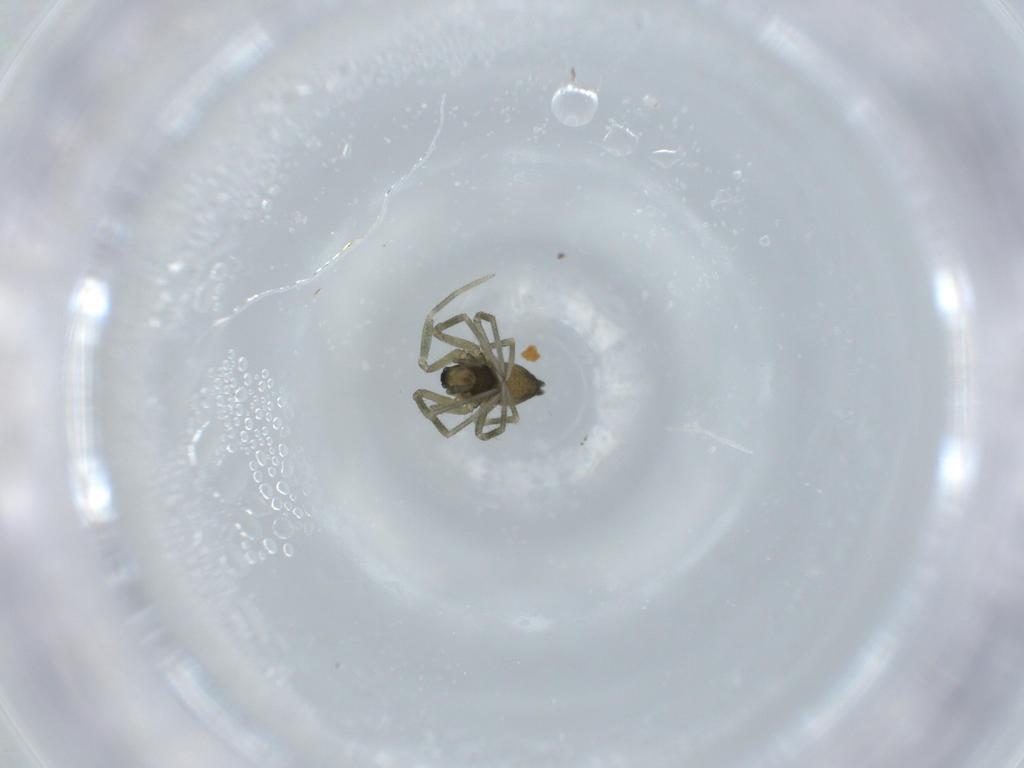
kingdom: Animalia
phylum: Arthropoda
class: Arachnida
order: Araneae
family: Linyphiidae
